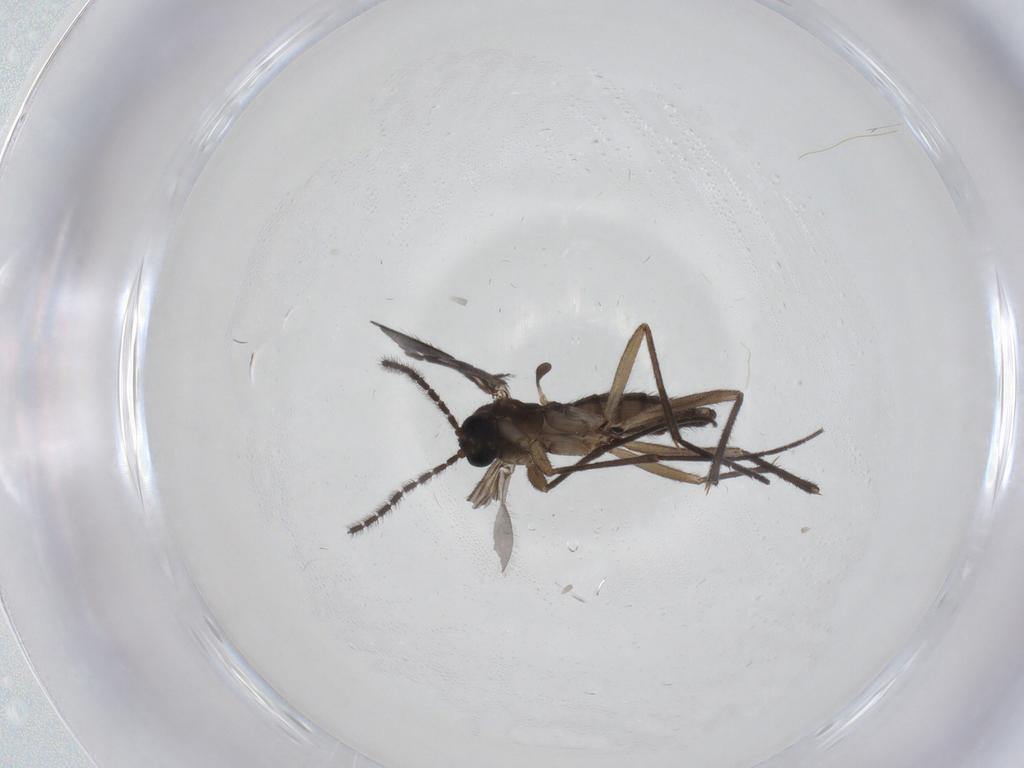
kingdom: Animalia
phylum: Arthropoda
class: Insecta
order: Diptera
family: Sciaridae
